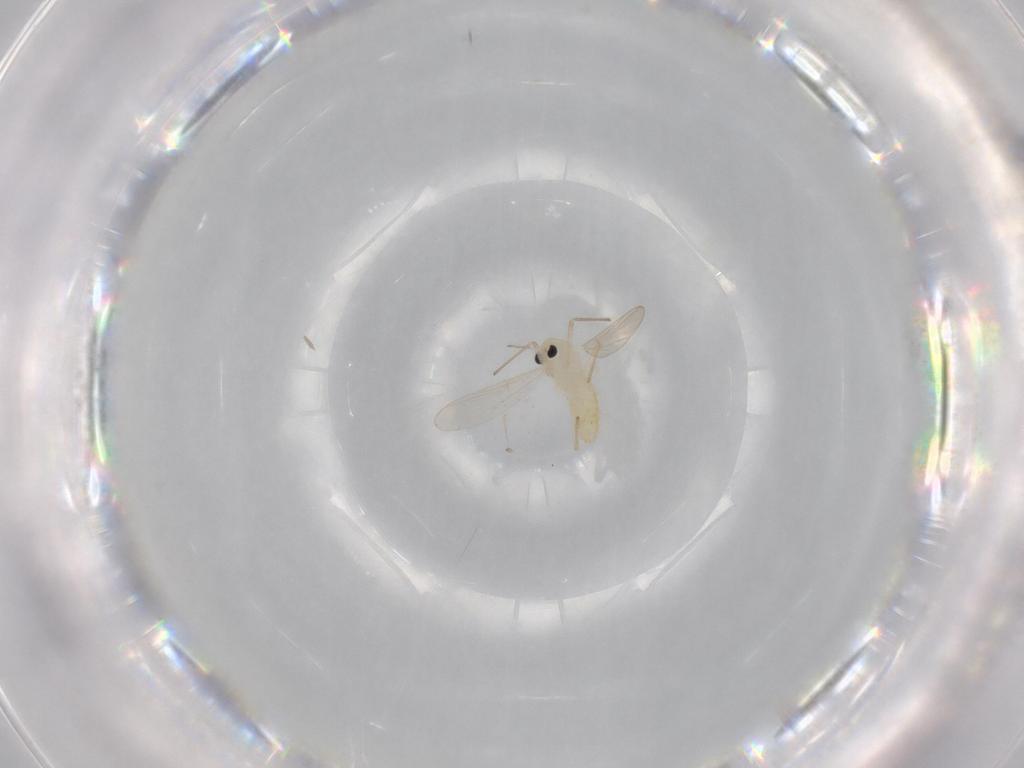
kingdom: Animalia
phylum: Arthropoda
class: Insecta
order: Diptera
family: Chironomidae
